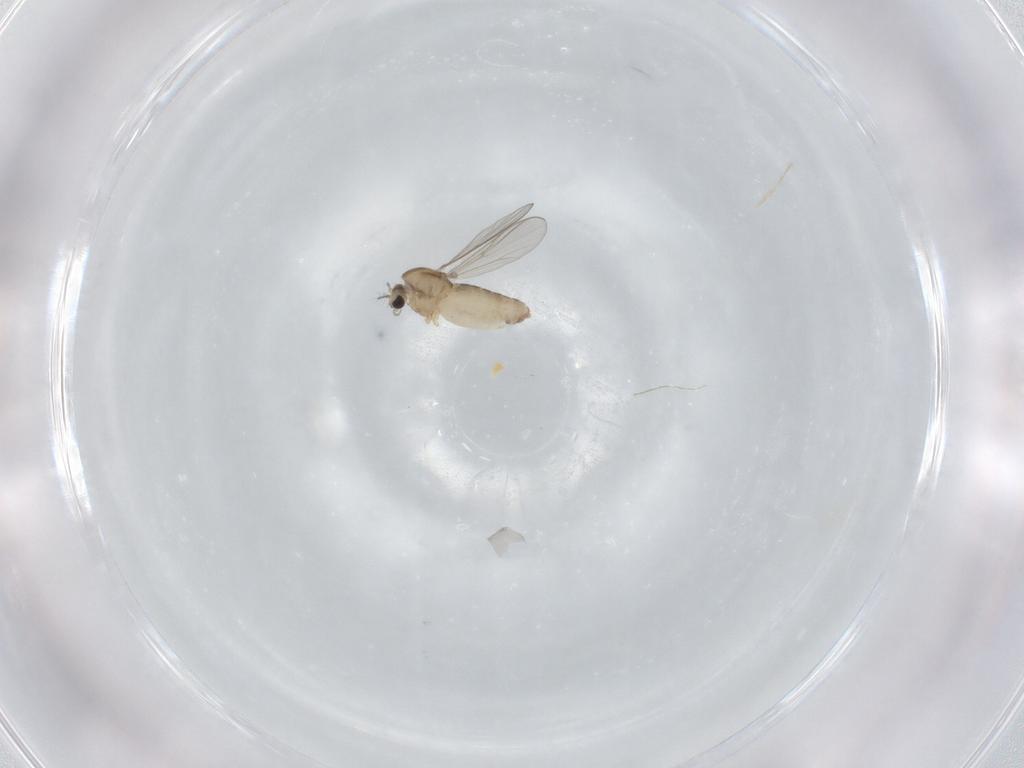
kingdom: Animalia
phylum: Arthropoda
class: Insecta
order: Diptera
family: Chironomidae
